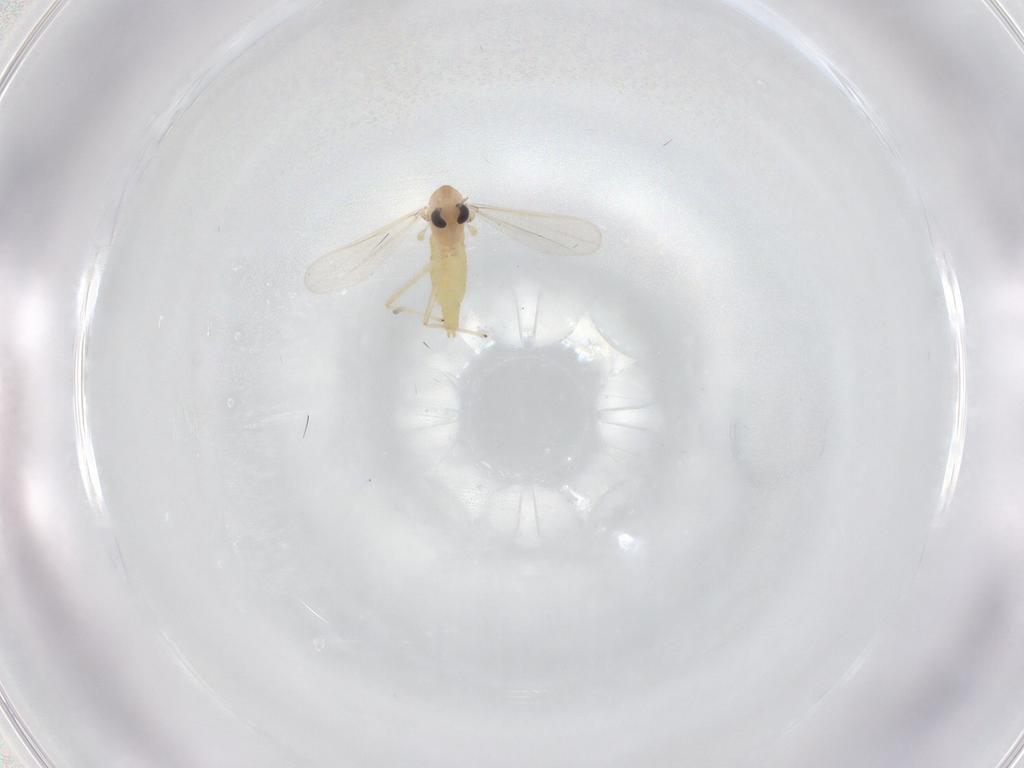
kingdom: Animalia
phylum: Arthropoda
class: Insecta
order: Diptera
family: Chironomidae
